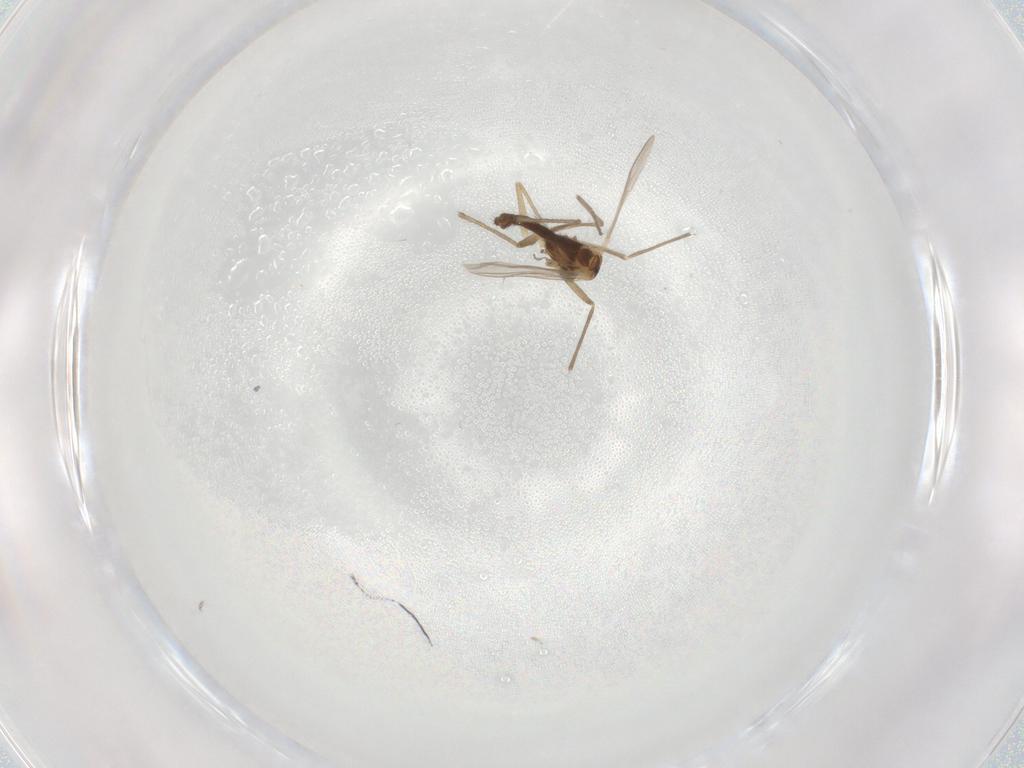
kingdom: Animalia
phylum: Arthropoda
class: Insecta
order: Diptera
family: Chironomidae
